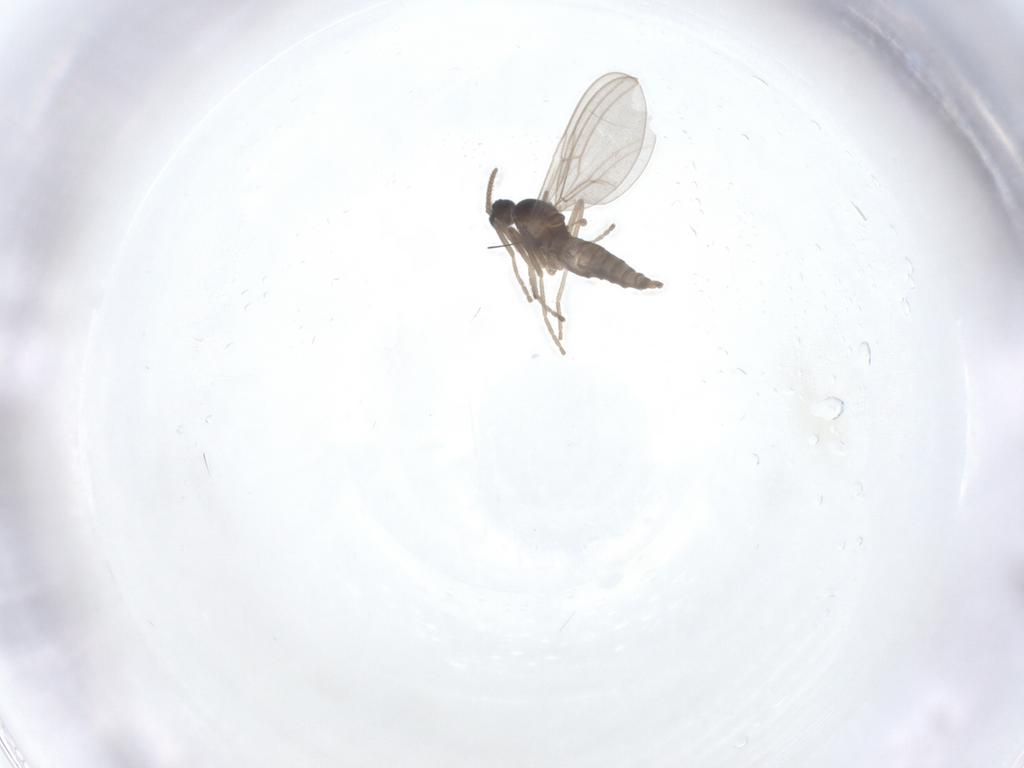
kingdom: Animalia
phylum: Arthropoda
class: Insecta
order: Diptera
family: Cecidomyiidae
